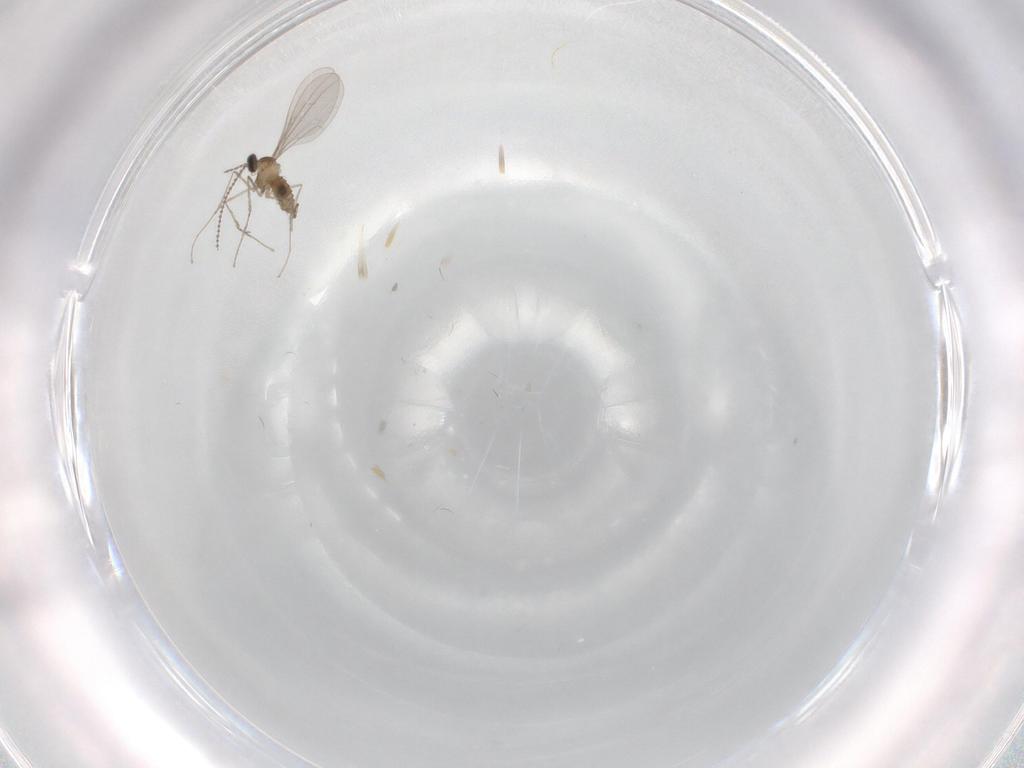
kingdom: Animalia
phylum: Arthropoda
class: Insecta
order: Diptera
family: Cecidomyiidae
